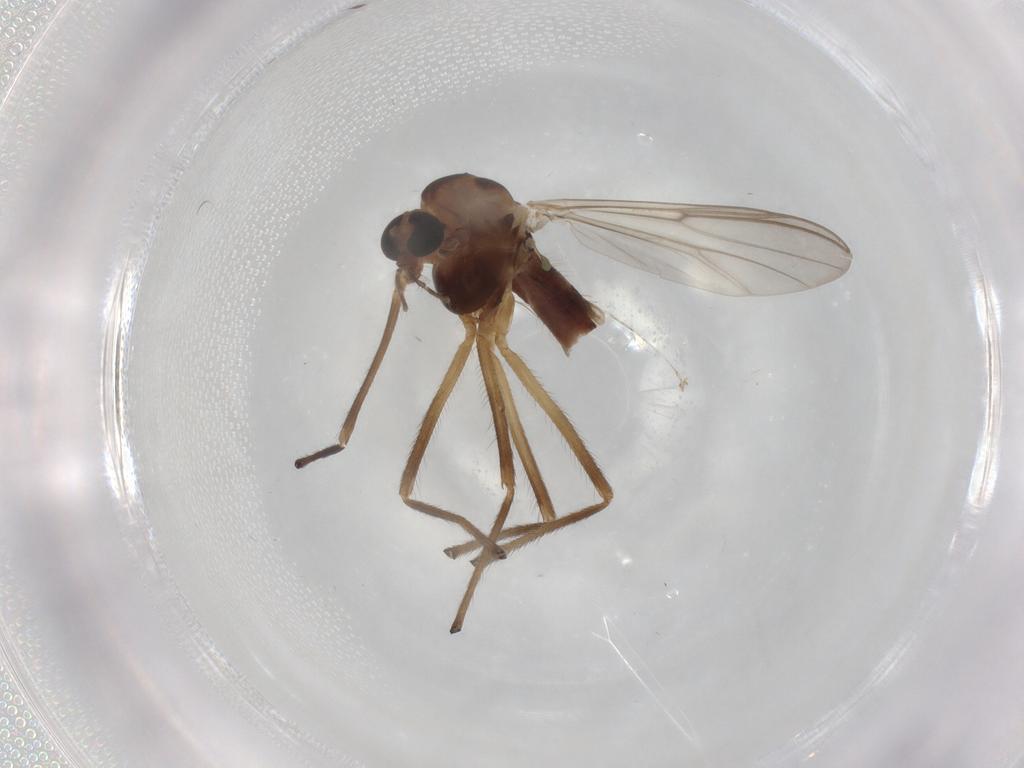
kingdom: Animalia
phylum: Arthropoda
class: Insecta
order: Diptera
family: Chironomidae
